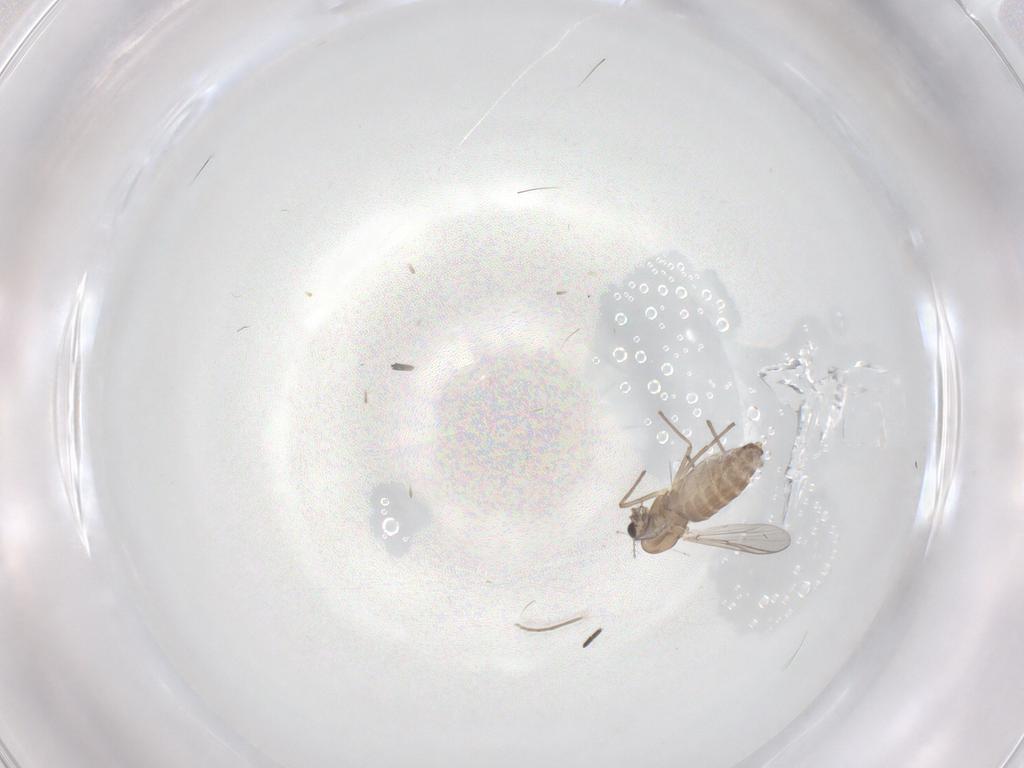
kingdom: Animalia
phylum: Arthropoda
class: Insecta
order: Diptera
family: Chironomidae
